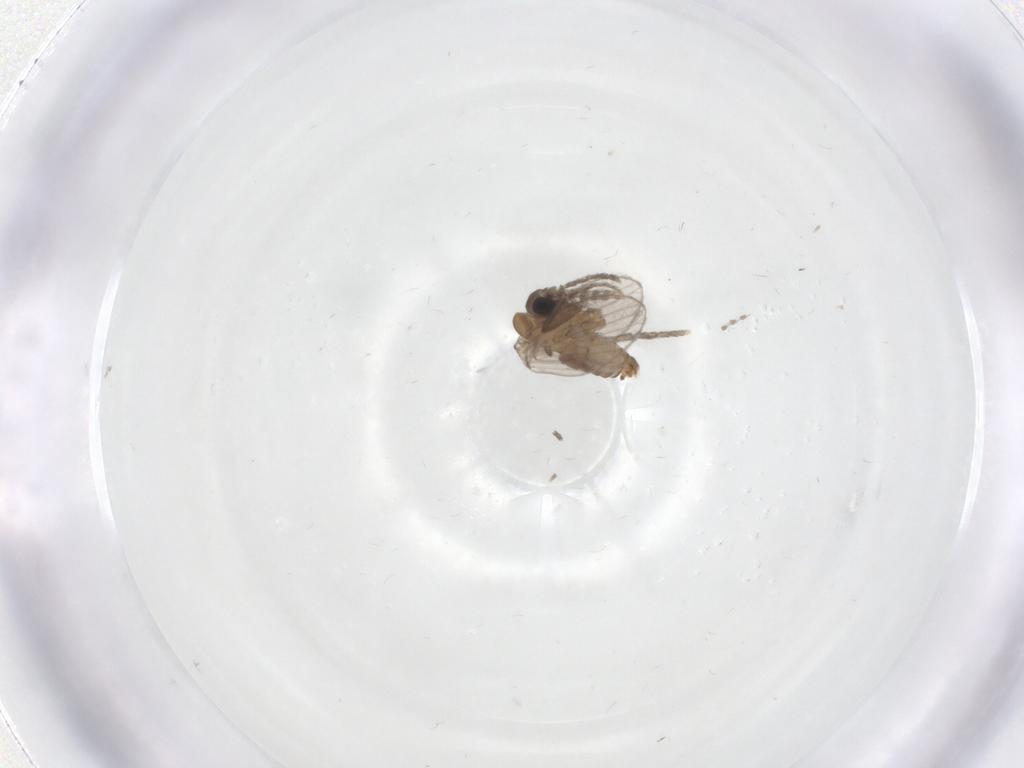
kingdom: Animalia
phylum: Arthropoda
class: Insecta
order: Diptera
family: Sciaridae
